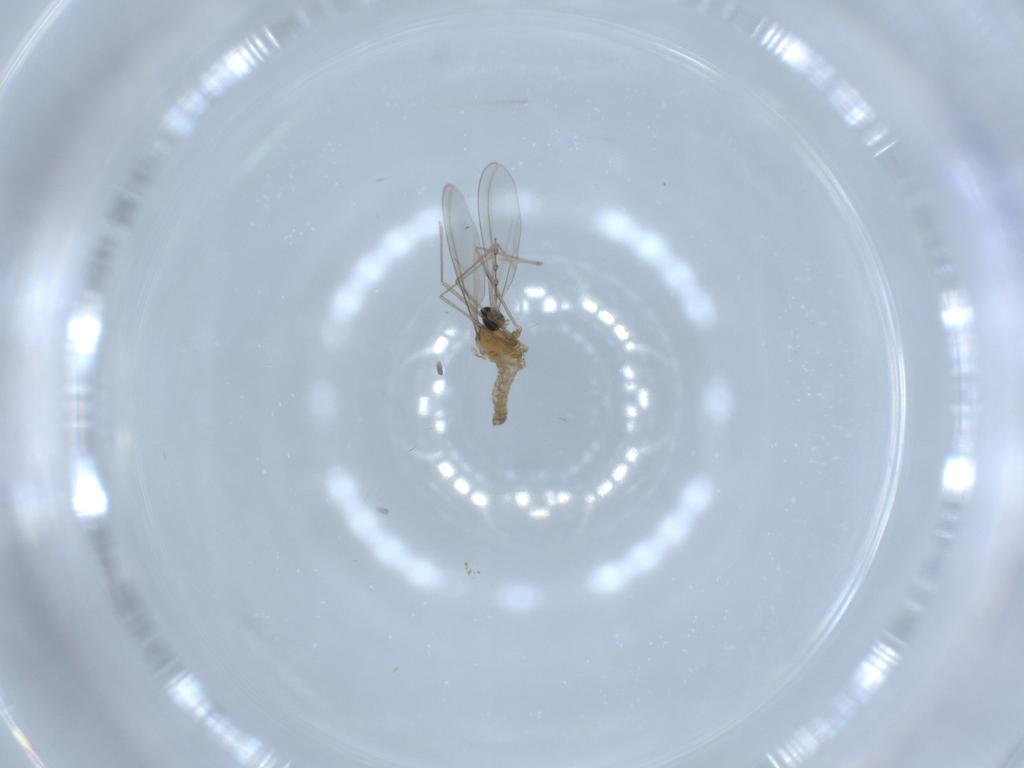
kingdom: Animalia
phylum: Arthropoda
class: Insecta
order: Diptera
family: Cecidomyiidae
